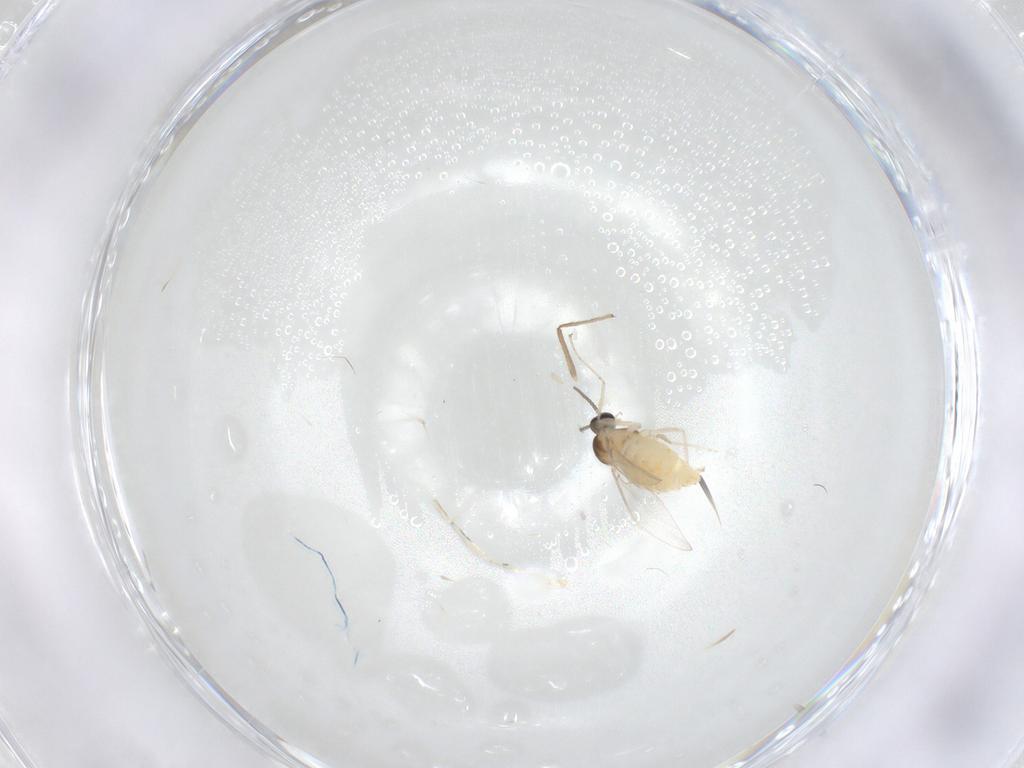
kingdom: Animalia
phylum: Arthropoda
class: Insecta
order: Diptera
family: Cecidomyiidae
